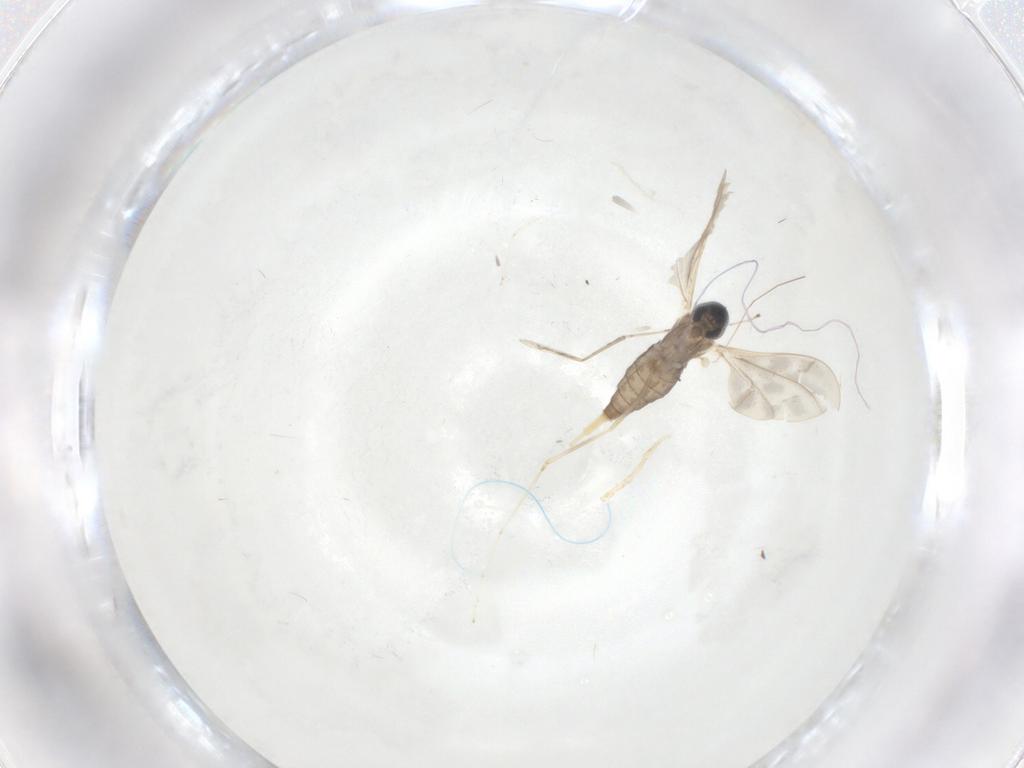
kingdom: Animalia
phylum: Arthropoda
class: Insecta
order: Diptera
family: Cecidomyiidae
